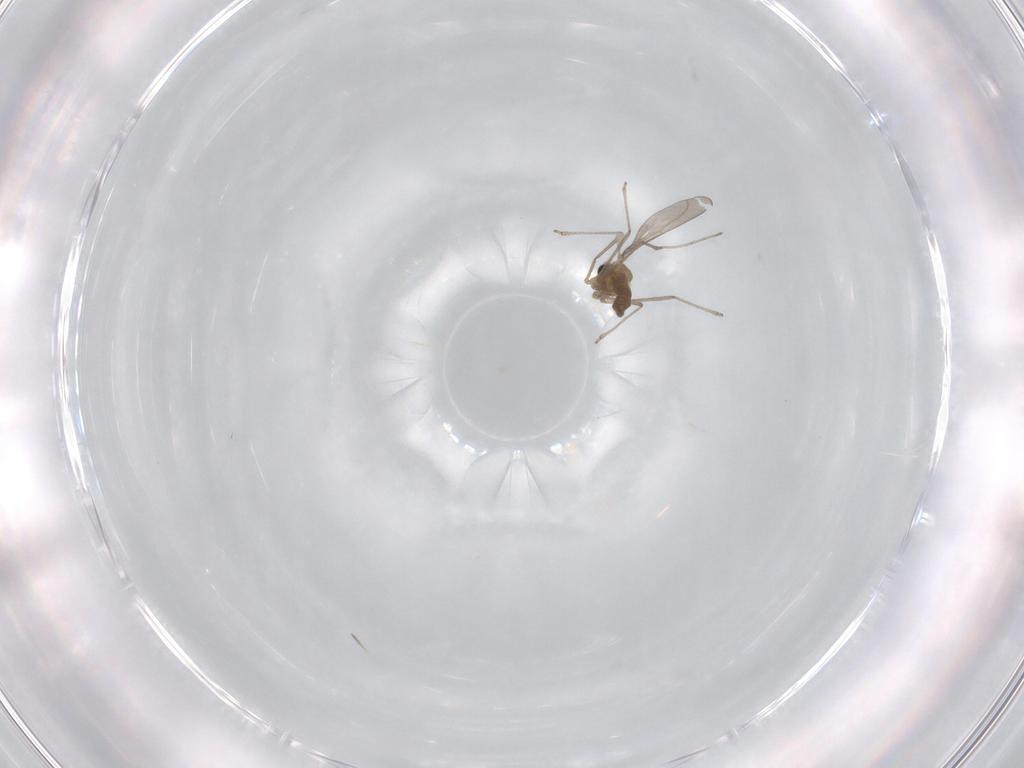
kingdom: Animalia
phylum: Arthropoda
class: Insecta
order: Diptera
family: Cecidomyiidae
